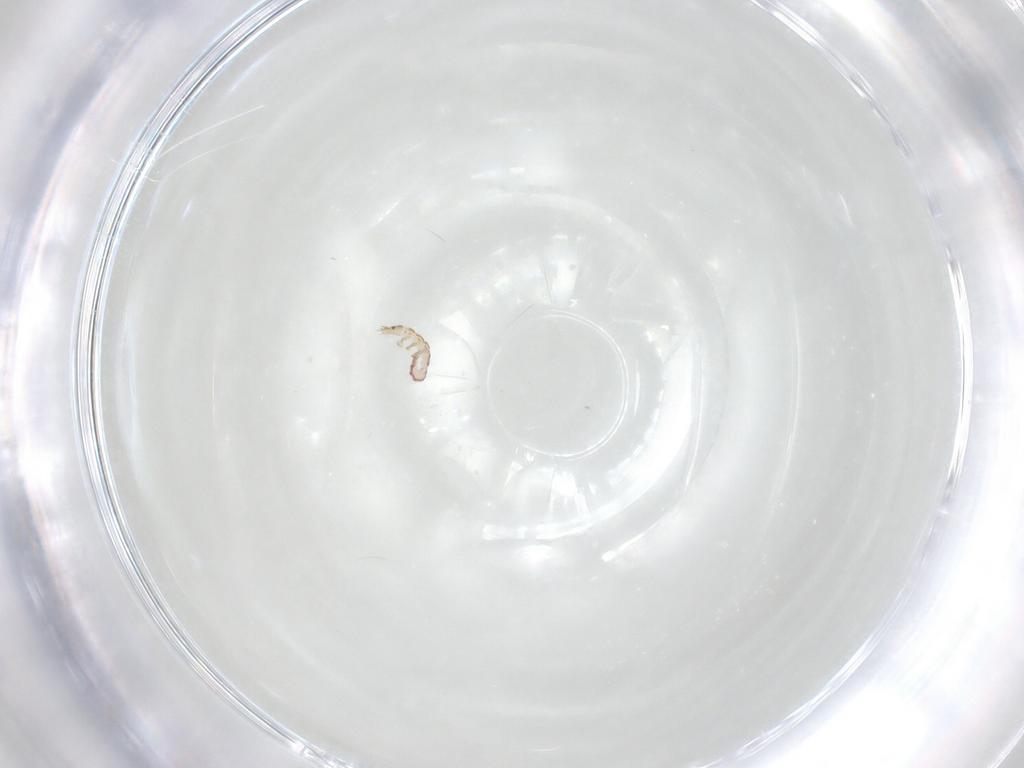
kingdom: Animalia
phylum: Arthropoda
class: Insecta
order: Neuroptera
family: Mantispidae
